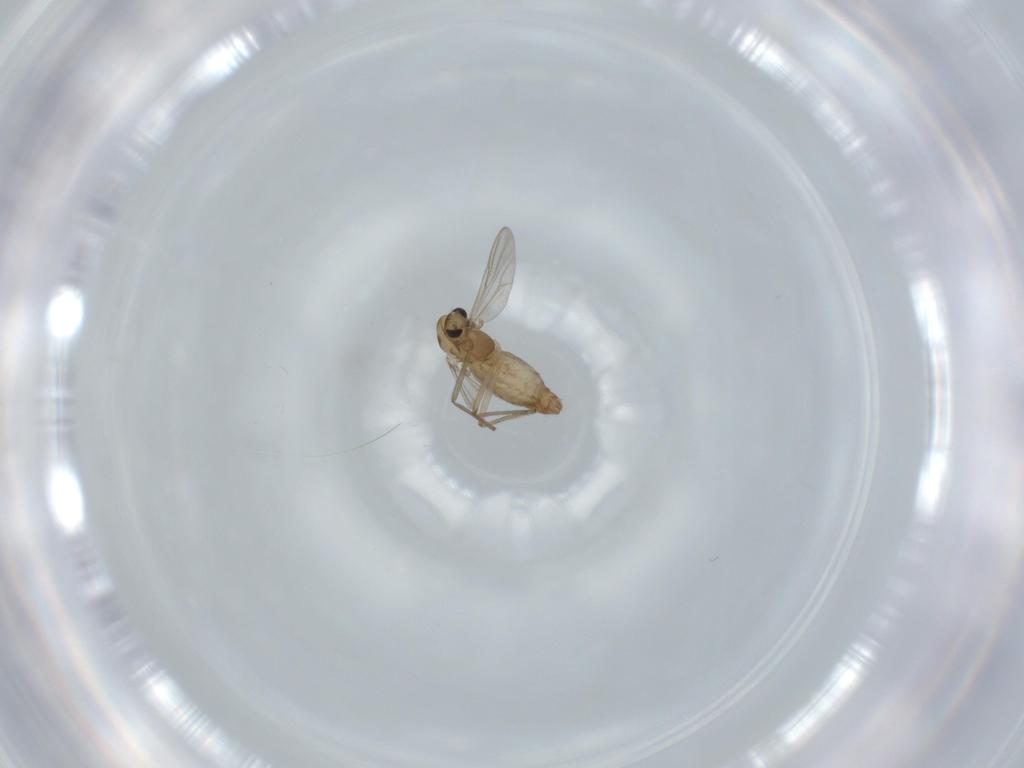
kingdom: Animalia
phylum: Arthropoda
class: Insecta
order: Diptera
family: Chironomidae
